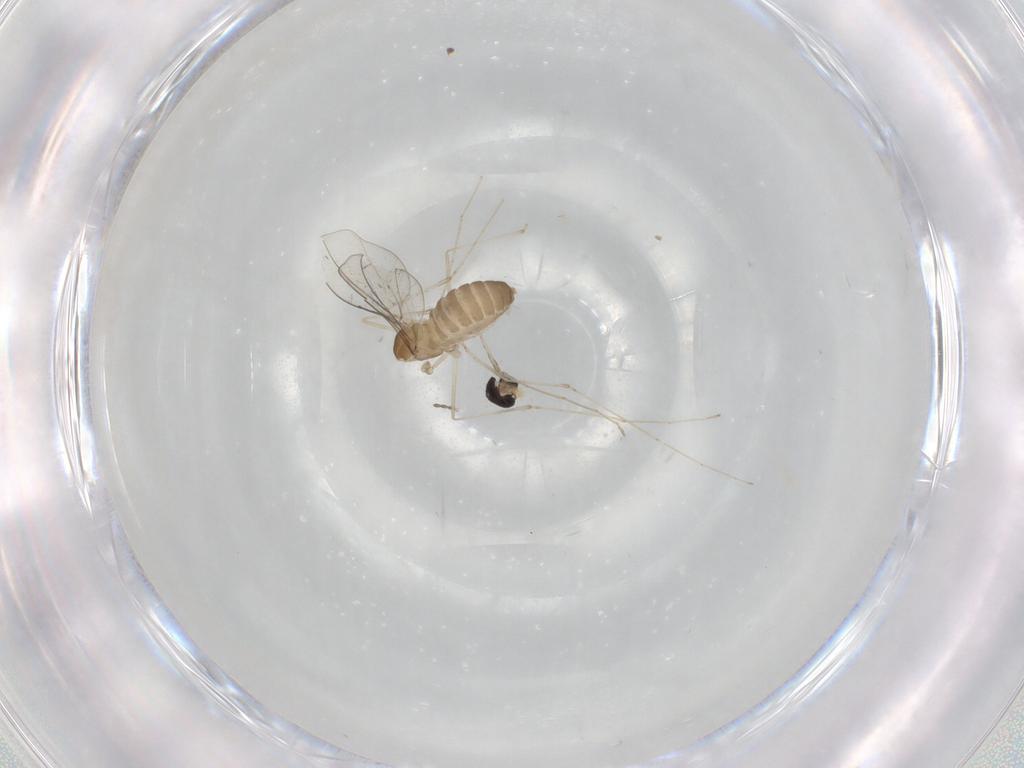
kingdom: Animalia
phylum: Arthropoda
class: Insecta
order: Diptera
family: Cecidomyiidae
